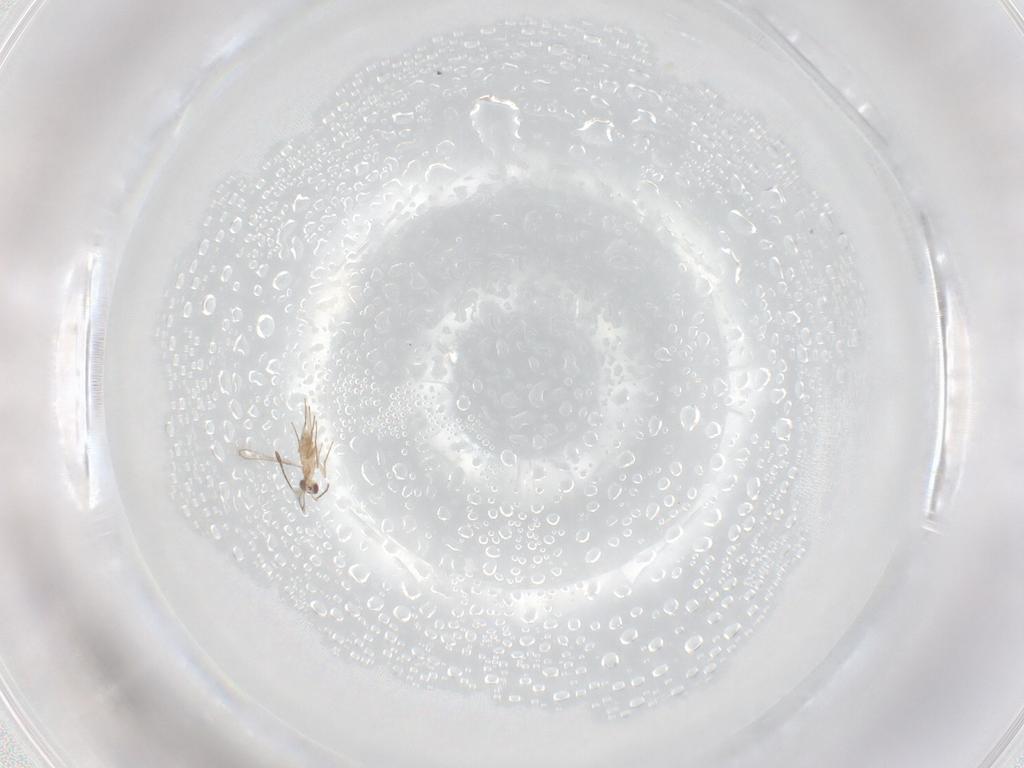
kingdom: Animalia
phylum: Arthropoda
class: Insecta
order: Hymenoptera
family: Mymaridae
